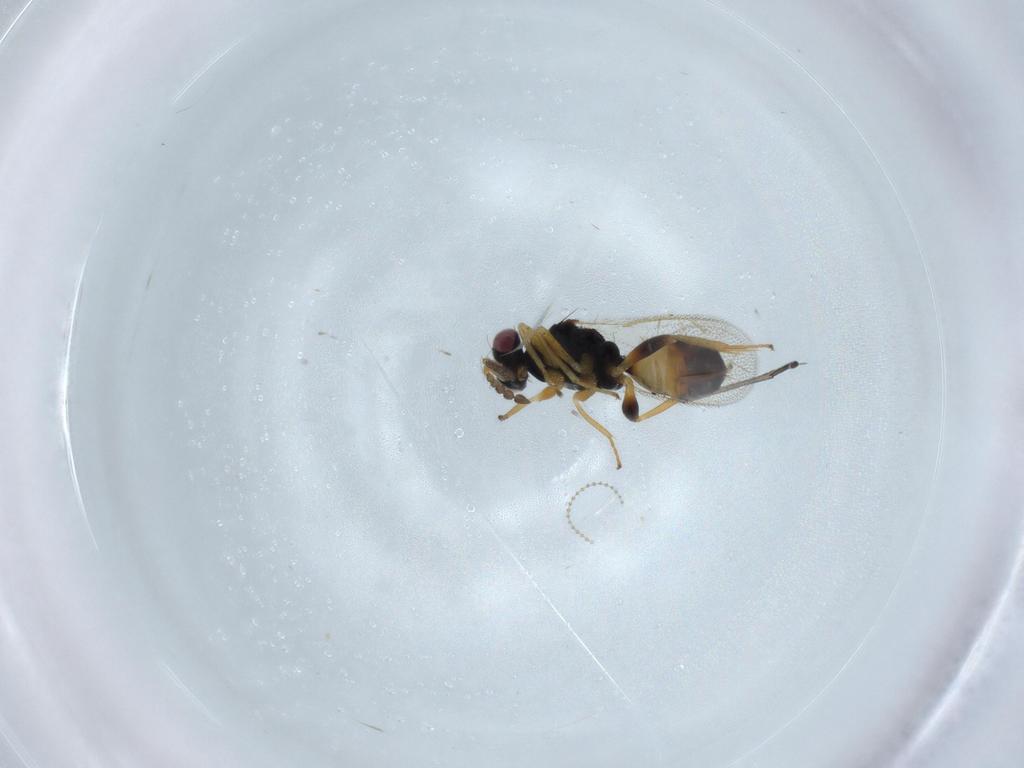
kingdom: Animalia
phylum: Arthropoda
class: Insecta
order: Hymenoptera
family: Eulophidae
